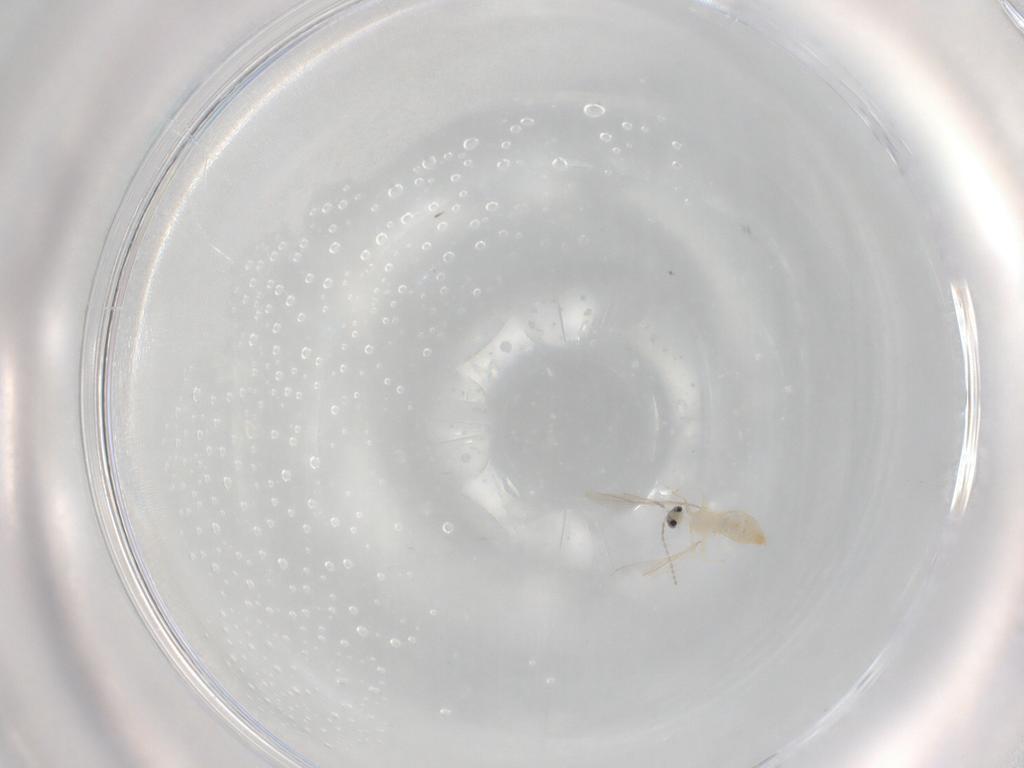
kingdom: Animalia
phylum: Arthropoda
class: Insecta
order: Diptera
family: Cecidomyiidae
